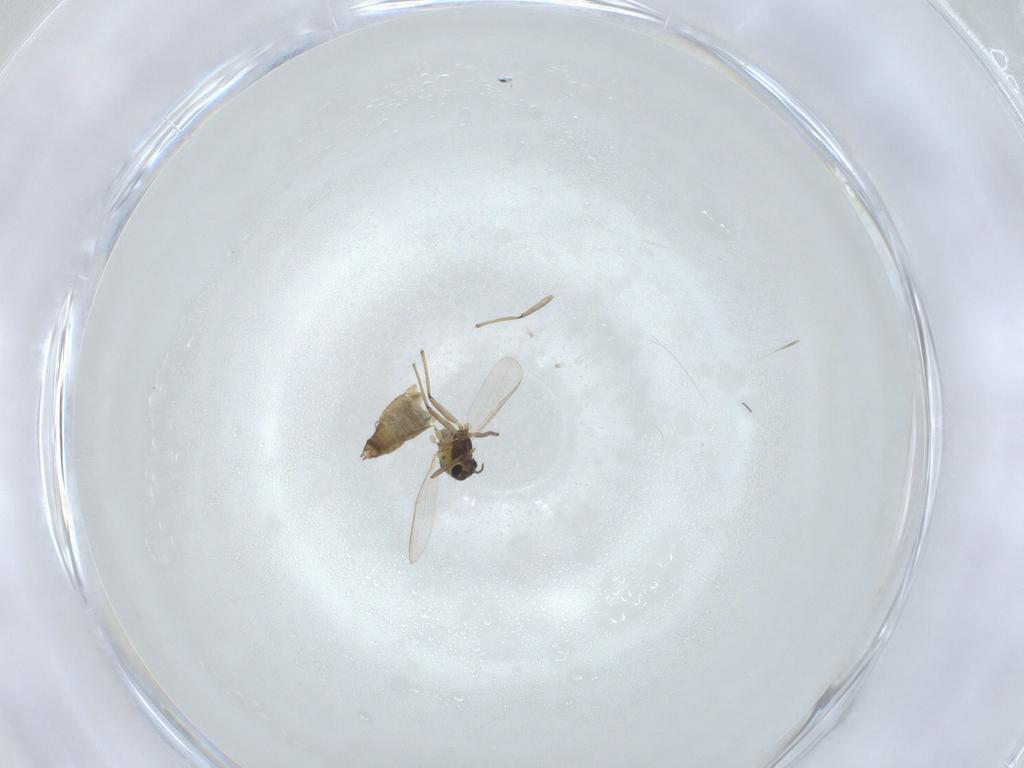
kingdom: Animalia
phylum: Arthropoda
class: Insecta
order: Diptera
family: Chironomidae
